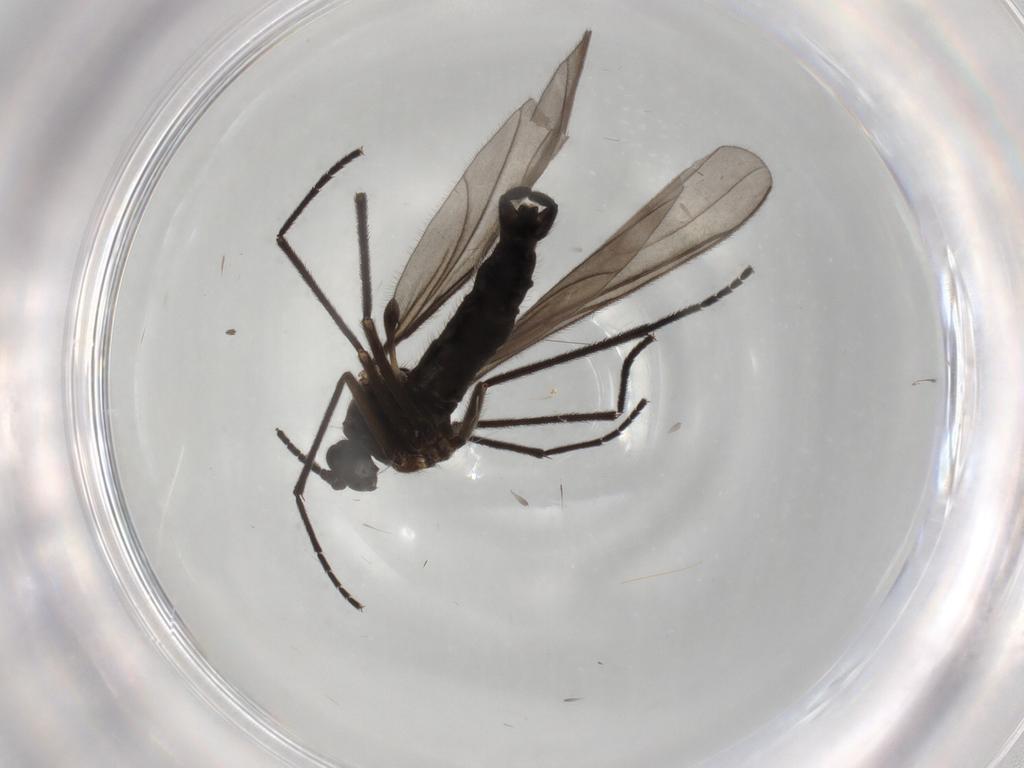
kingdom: Animalia
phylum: Arthropoda
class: Insecta
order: Diptera
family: Sciaridae
